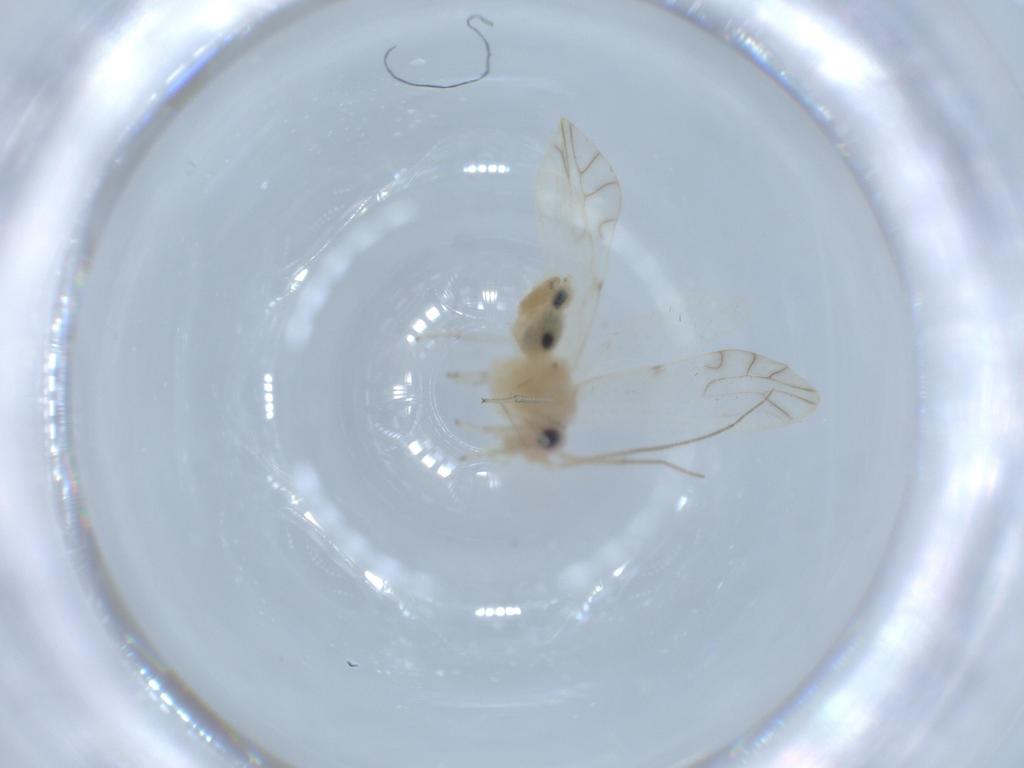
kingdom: Animalia
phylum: Arthropoda
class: Insecta
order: Psocodea
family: Caeciliusidae
